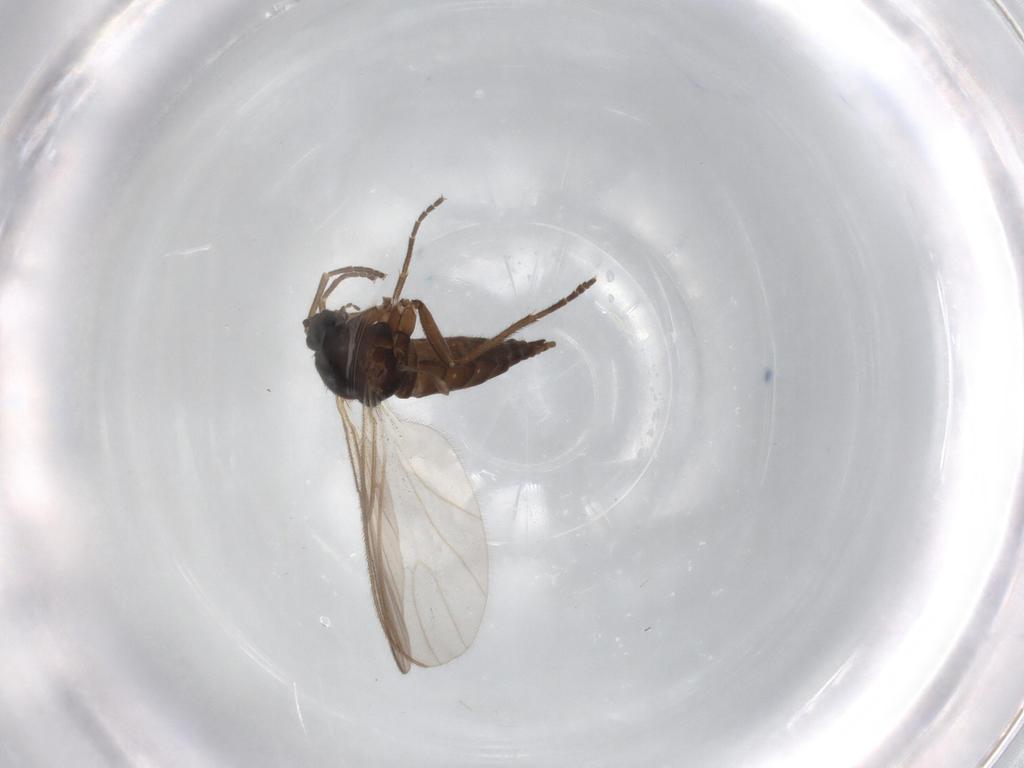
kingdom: Animalia
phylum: Arthropoda
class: Insecta
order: Diptera
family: Sciaridae
